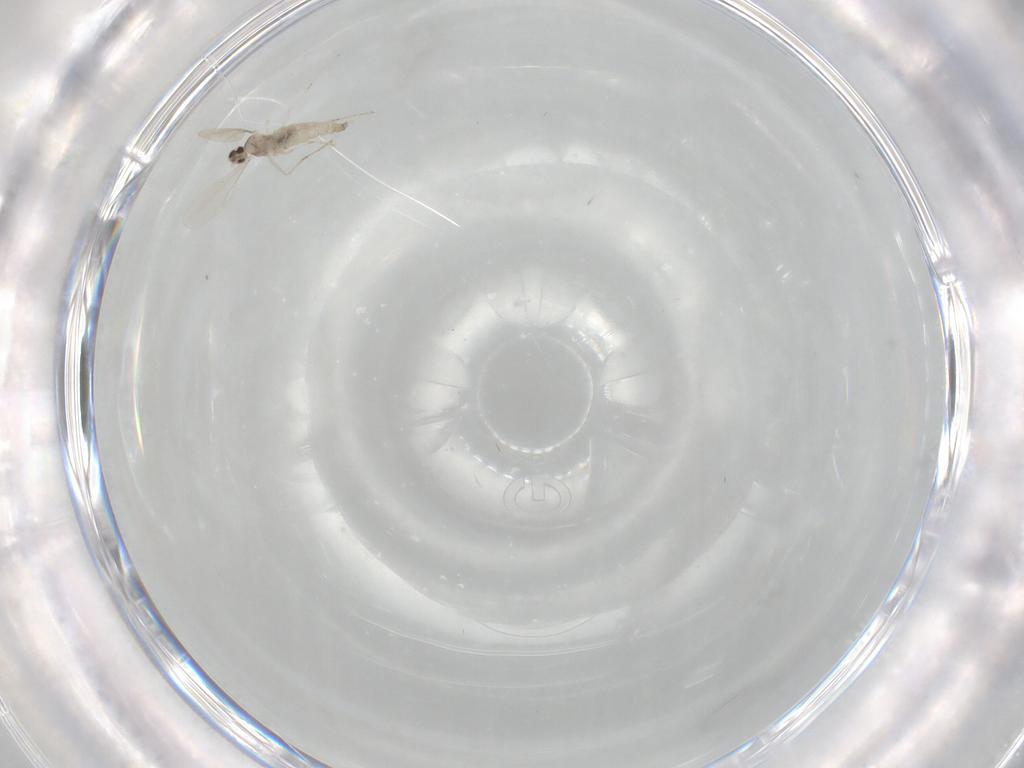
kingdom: Animalia
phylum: Arthropoda
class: Insecta
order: Diptera
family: Cecidomyiidae
